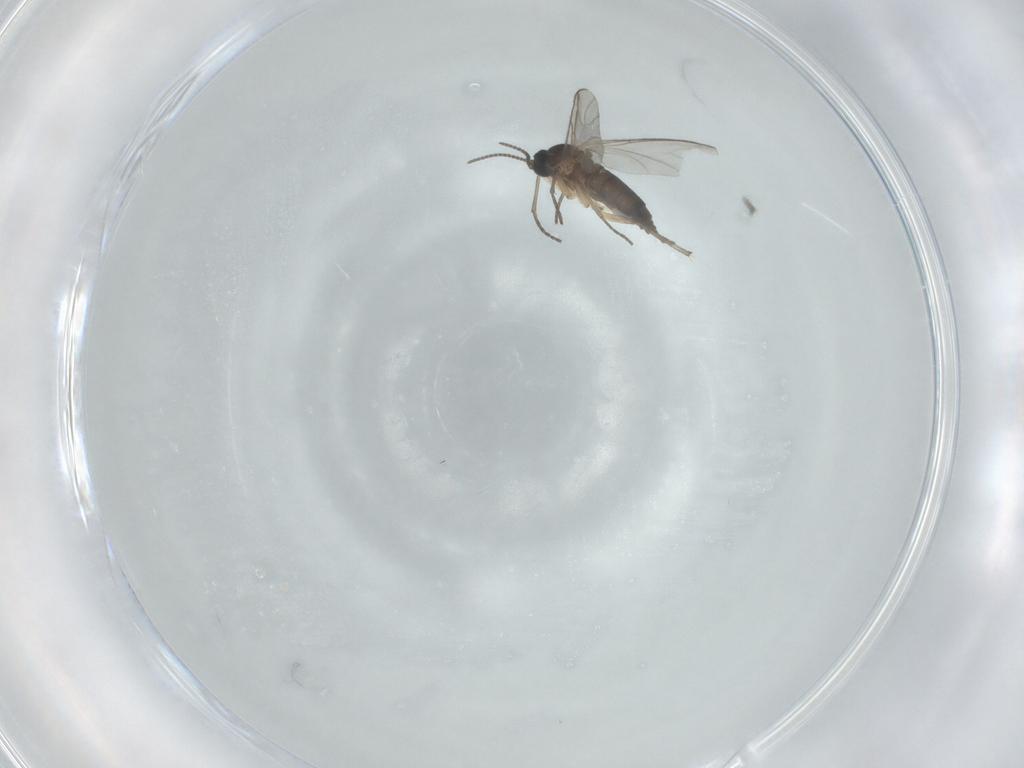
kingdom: Animalia
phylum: Arthropoda
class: Insecta
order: Diptera
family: Sciaridae
